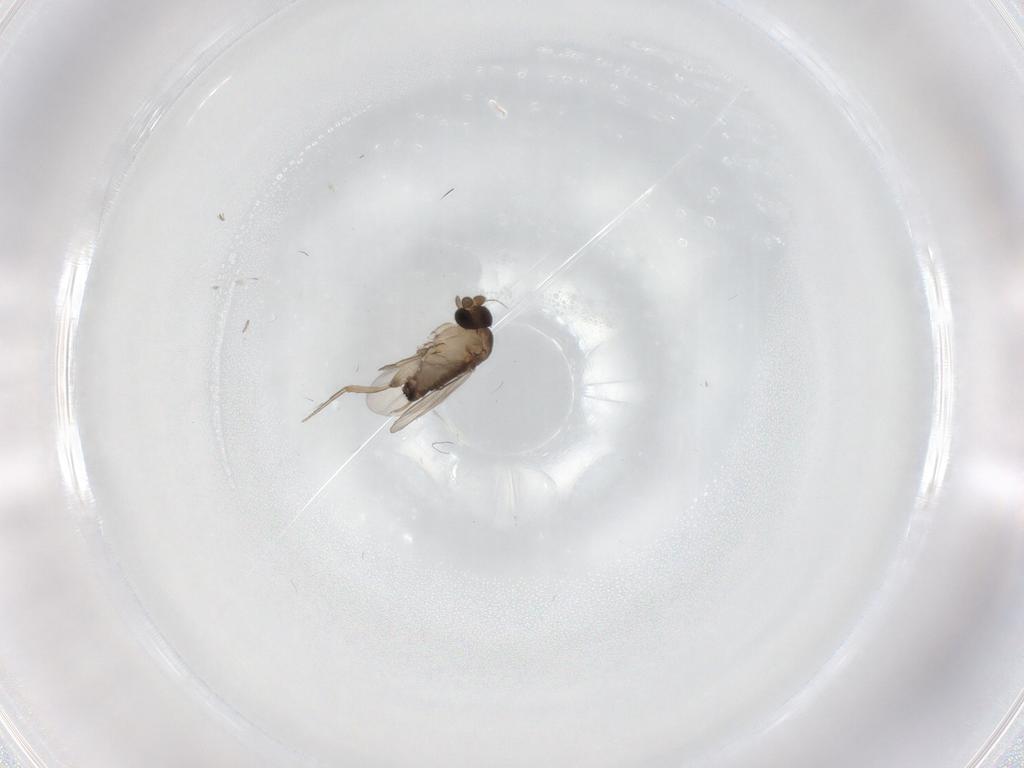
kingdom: Animalia
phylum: Arthropoda
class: Insecta
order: Diptera
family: Phoridae
